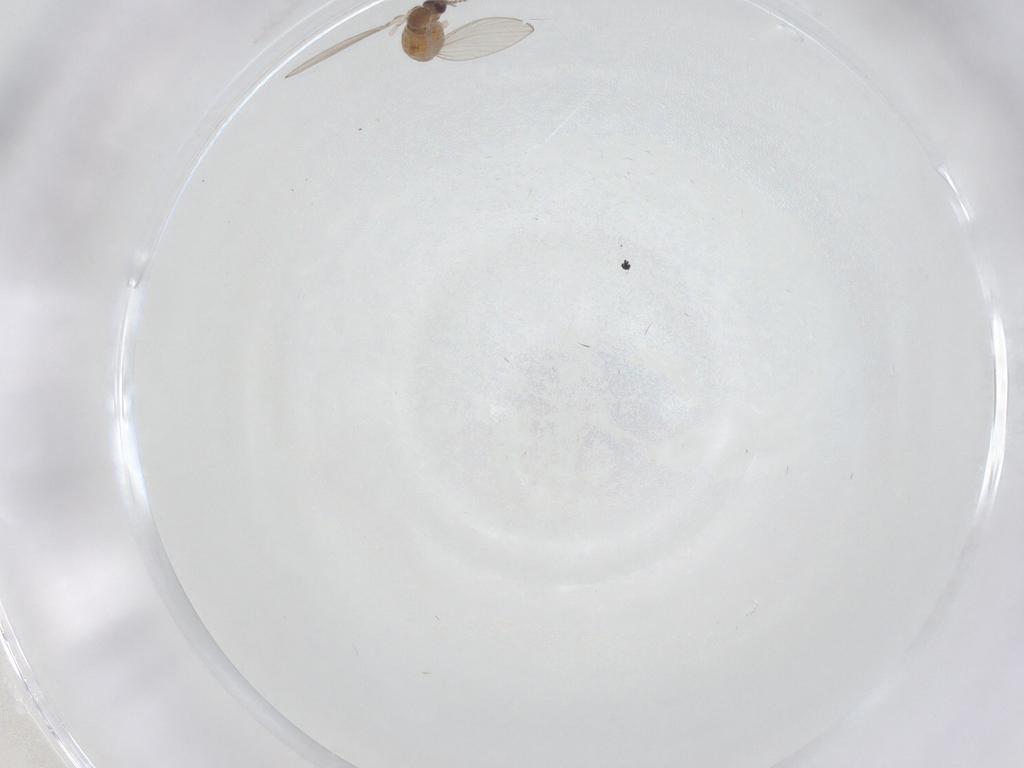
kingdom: Animalia
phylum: Arthropoda
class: Insecta
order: Diptera
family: Psychodidae
